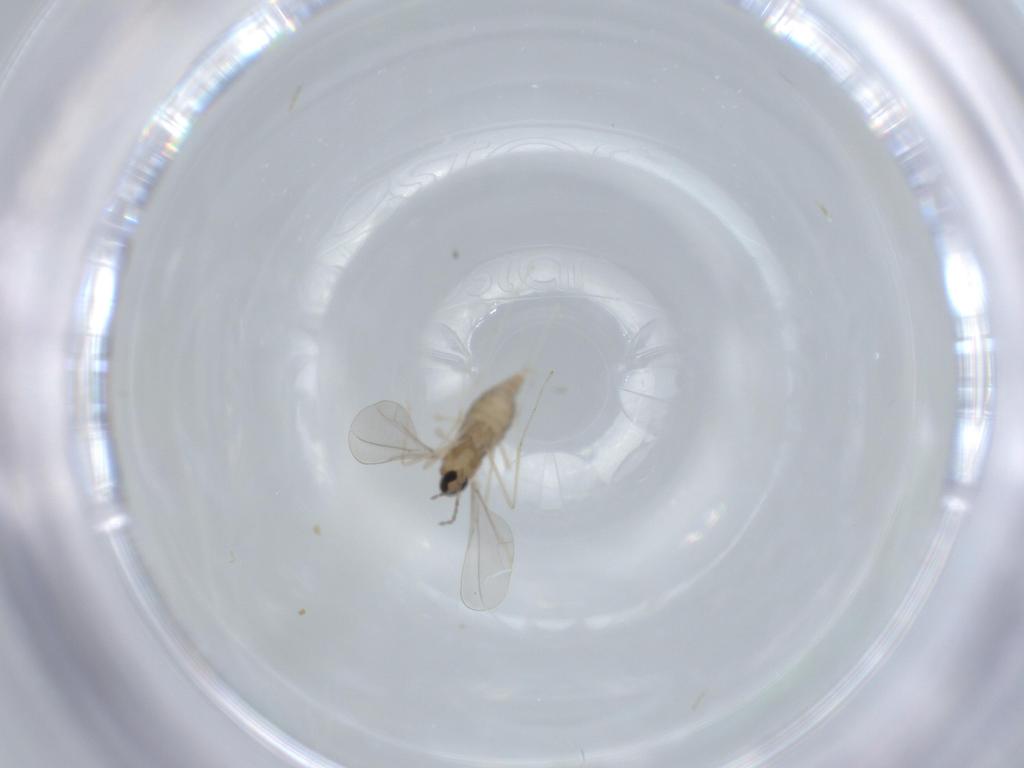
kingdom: Animalia
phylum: Arthropoda
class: Insecta
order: Diptera
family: Cecidomyiidae
